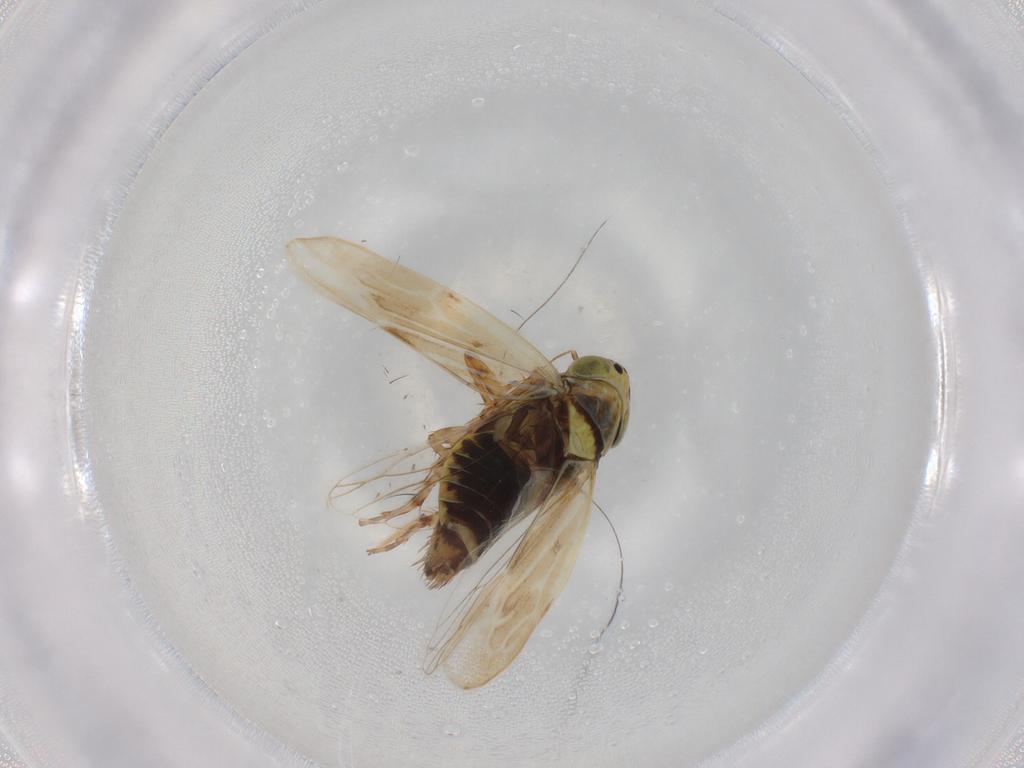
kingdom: Animalia
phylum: Arthropoda
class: Insecta
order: Hemiptera
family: Cicadellidae
